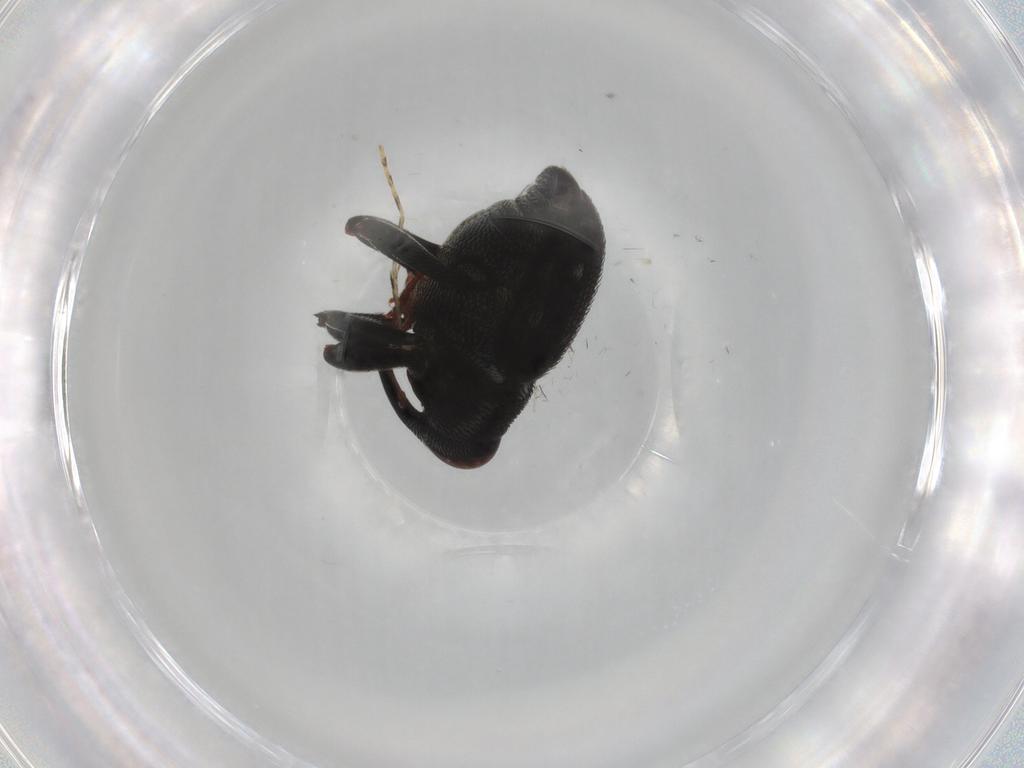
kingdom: Animalia
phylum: Arthropoda
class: Insecta
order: Coleoptera
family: Curculionidae
